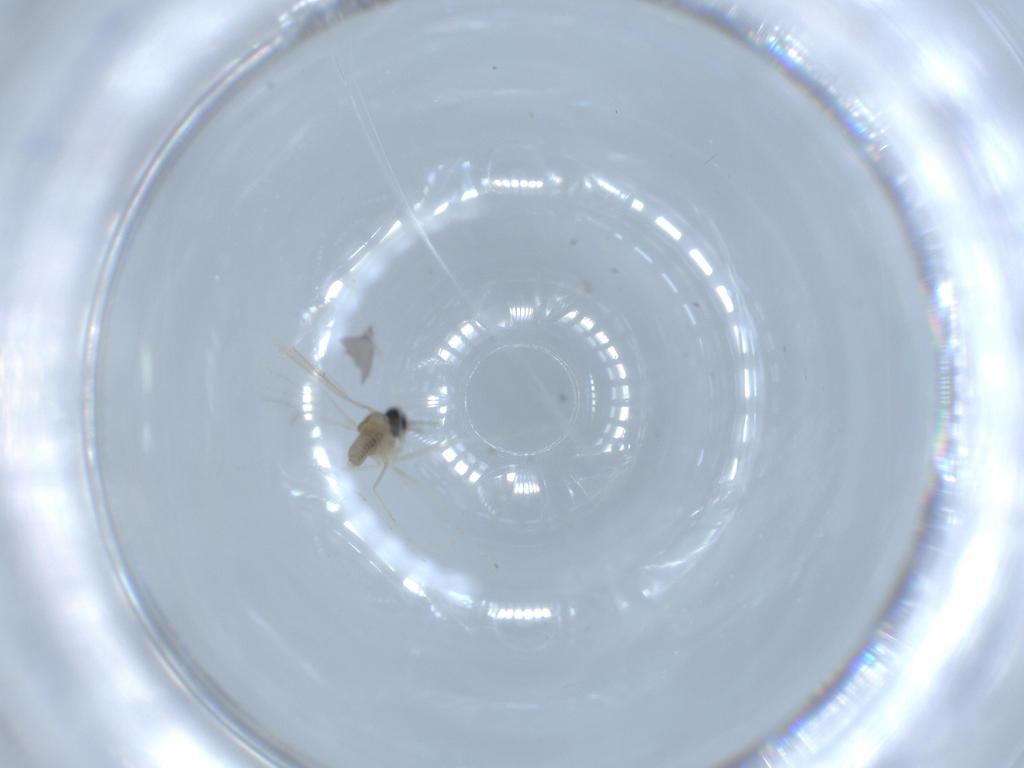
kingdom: Animalia
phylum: Arthropoda
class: Insecta
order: Diptera
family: Cecidomyiidae
